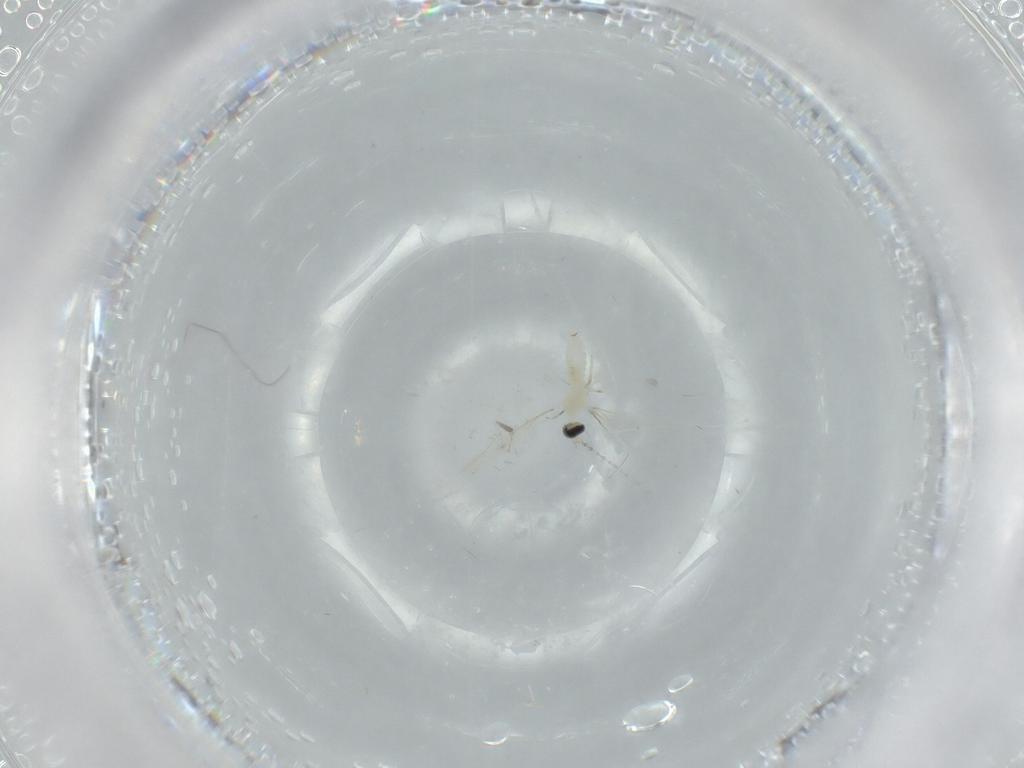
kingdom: Animalia
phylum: Arthropoda
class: Insecta
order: Diptera
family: Cecidomyiidae
